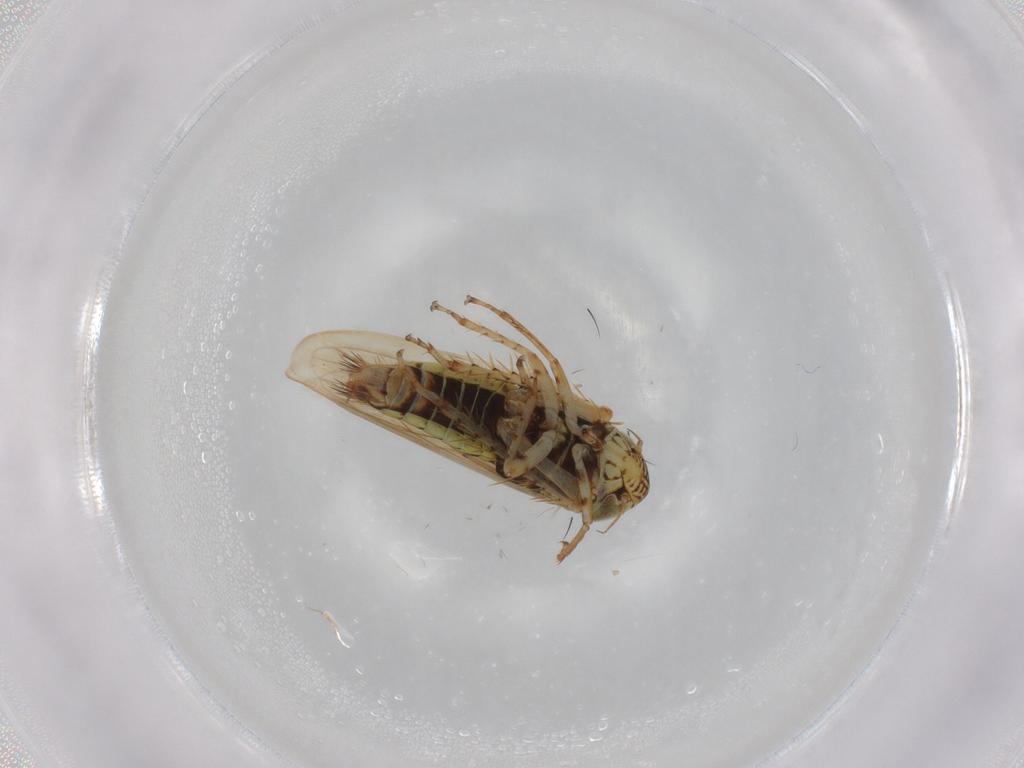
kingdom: Animalia
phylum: Arthropoda
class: Insecta
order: Hemiptera
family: Cicadellidae
